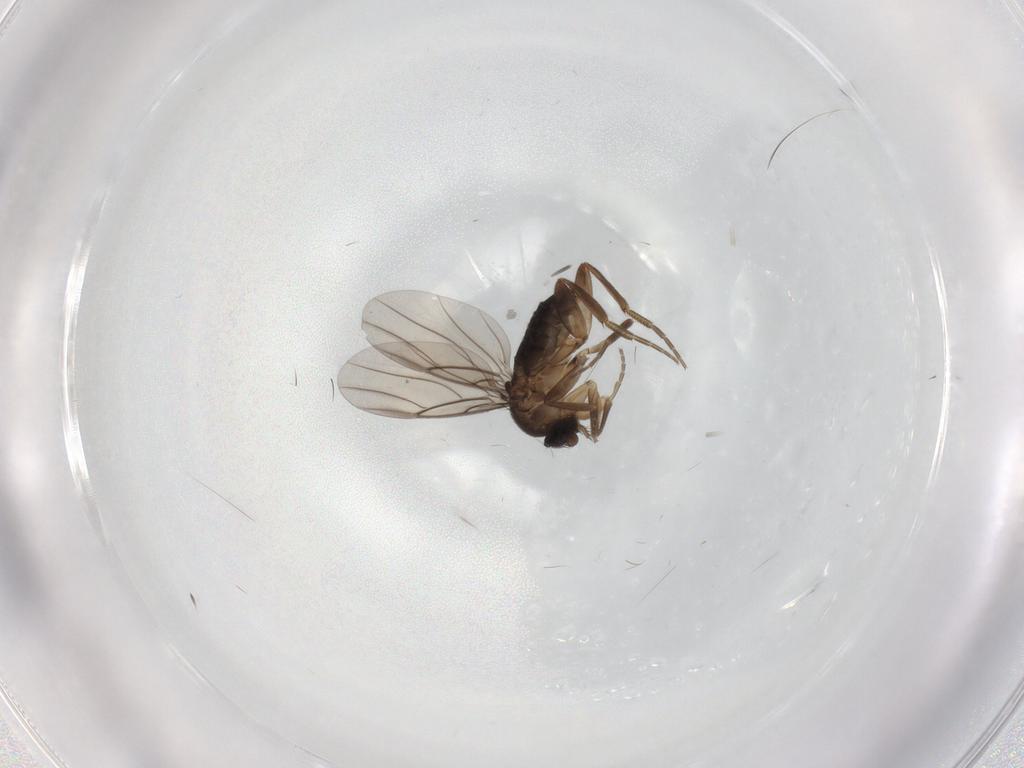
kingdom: Animalia
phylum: Arthropoda
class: Insecta
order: Diptera
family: Phoridae
